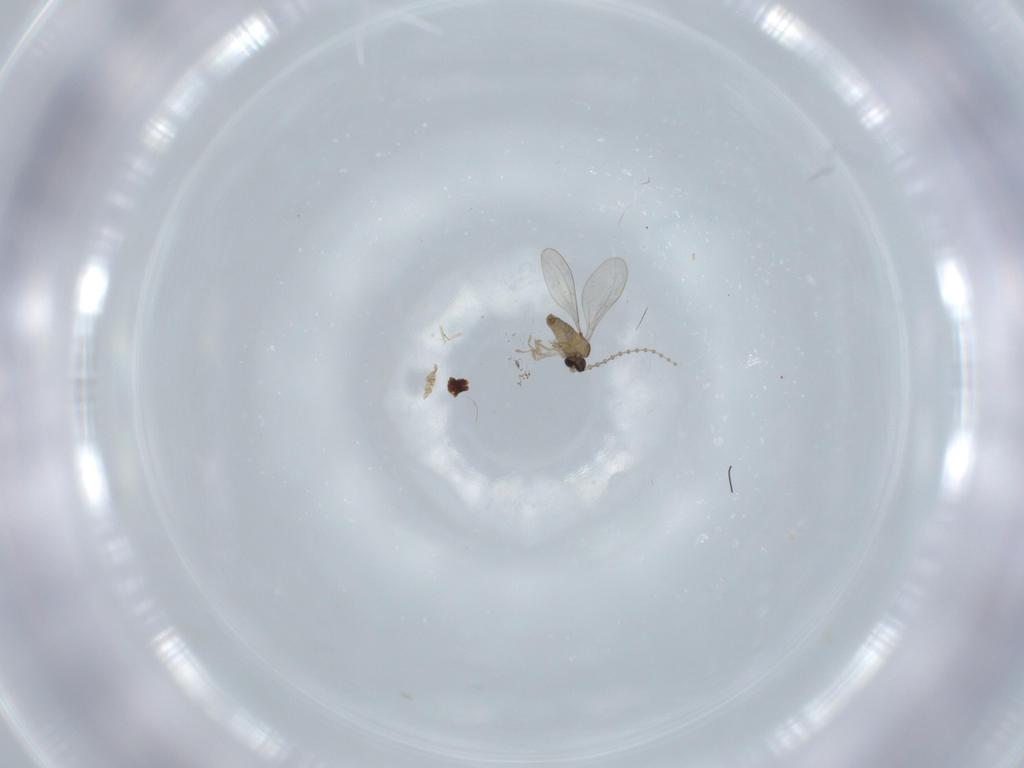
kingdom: Animalia
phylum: Arthropoda
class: Insecta
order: Diptera
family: Cecidomyiidae
